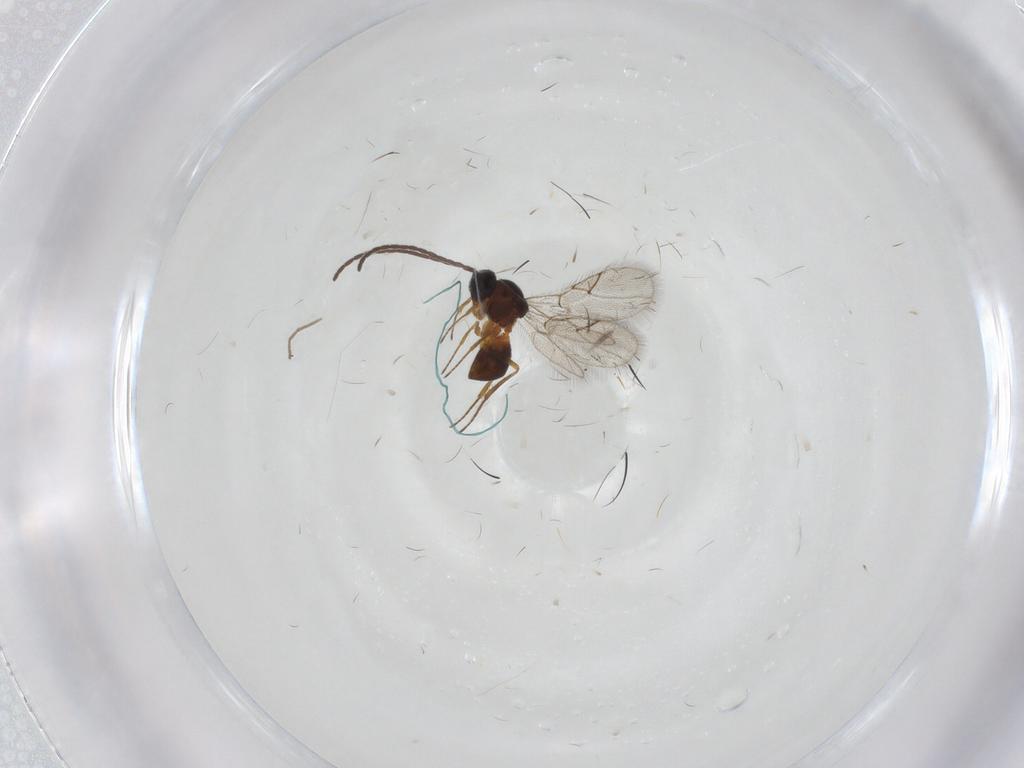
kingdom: Animalia
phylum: Arthropoda
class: Insecta
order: Hymenoptera
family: Figitidae
